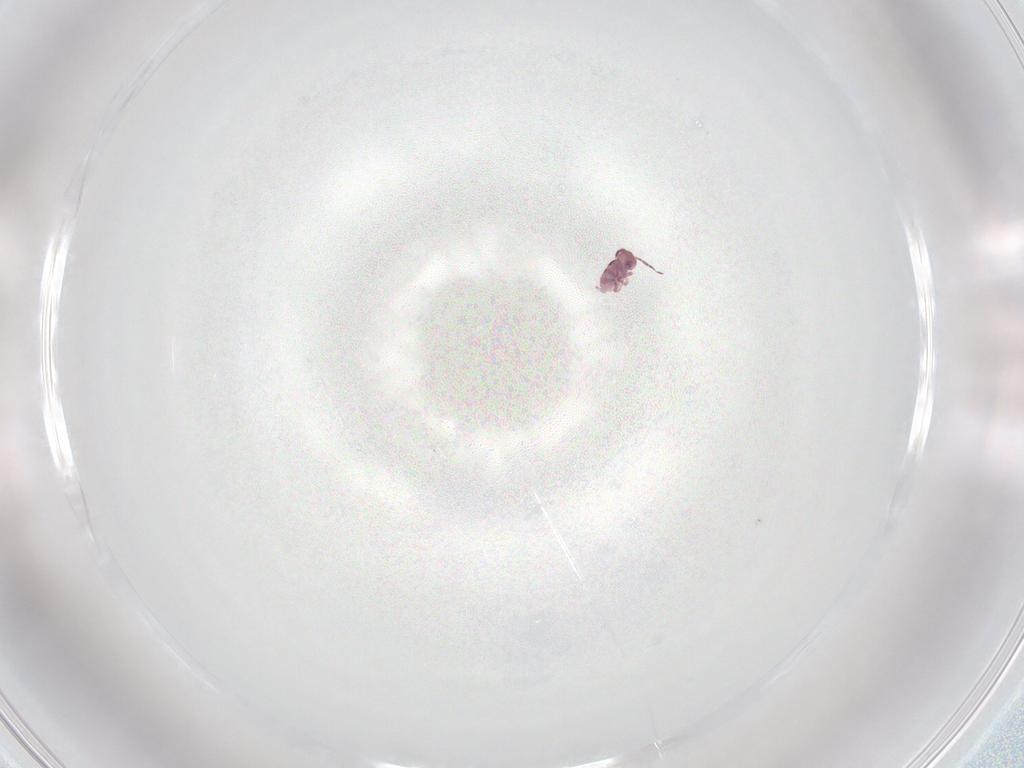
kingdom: Animalia
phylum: Arthropoda
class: Collembola
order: Symphypleona
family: Sminthurididae
